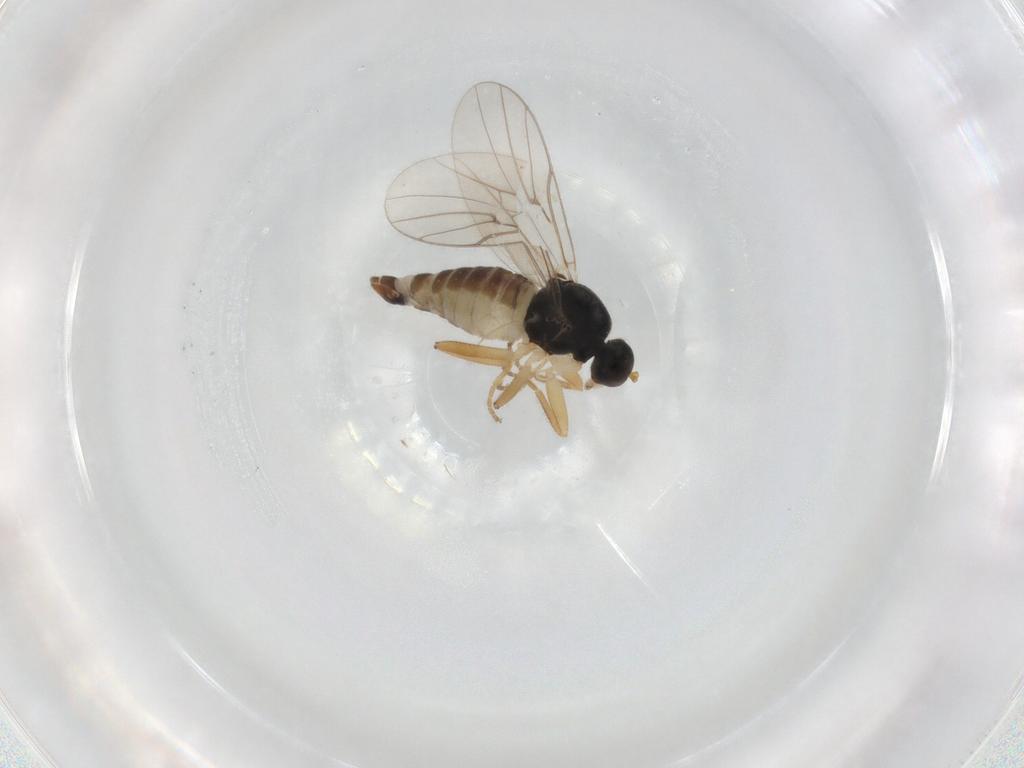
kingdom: Animalia
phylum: Arthropoda
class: Insecta
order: Diptera
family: Hybotidae
